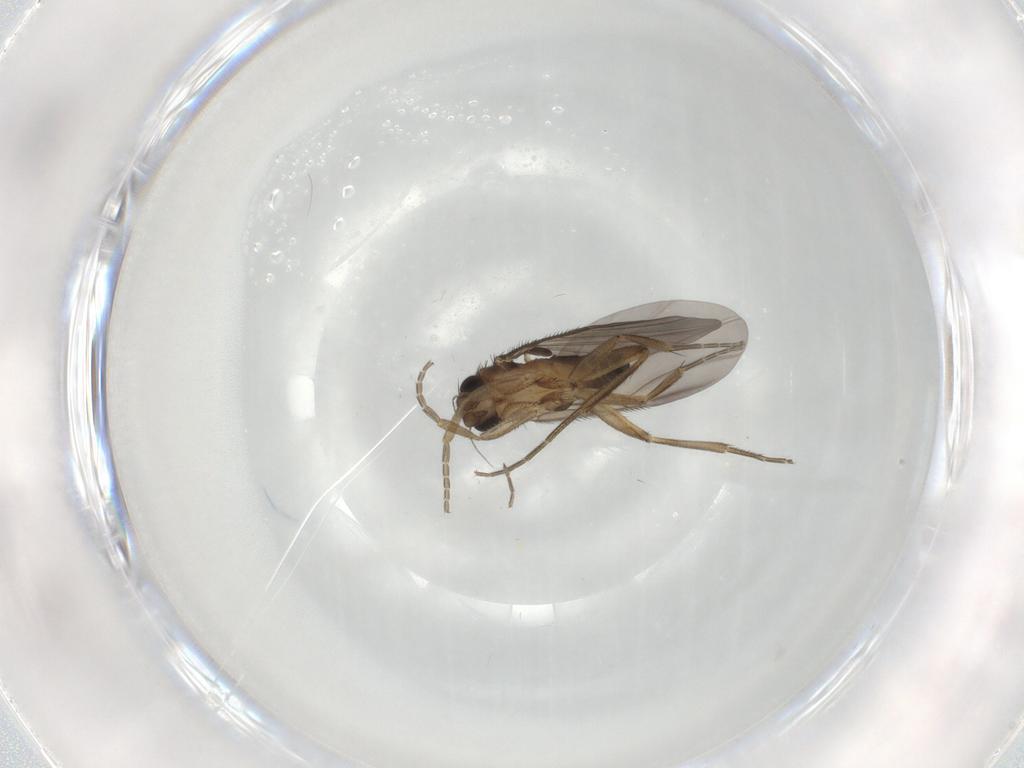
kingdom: Animalia
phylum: Arthropoda
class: Insecta
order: Diptera
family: Phoridae
